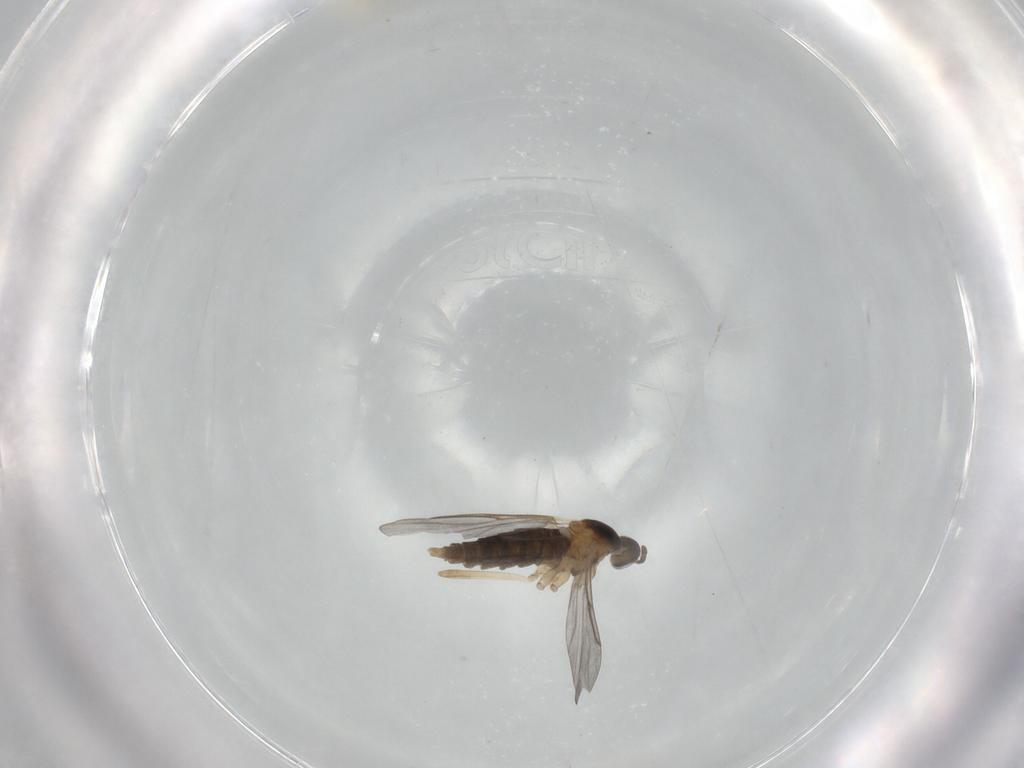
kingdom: Animalia
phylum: Arthropoda
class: Insecta
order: Diptera
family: Cecidomyiidae
